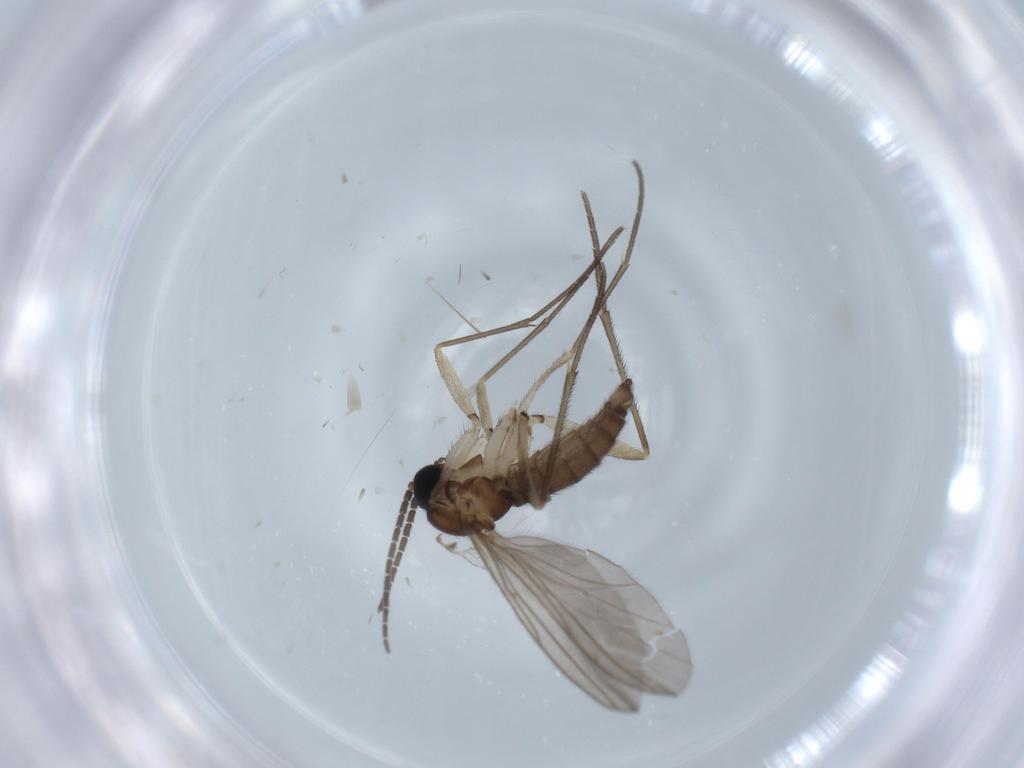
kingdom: Animalia
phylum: Arthropoda
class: Insecta
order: Diptera
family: Sciaridae
